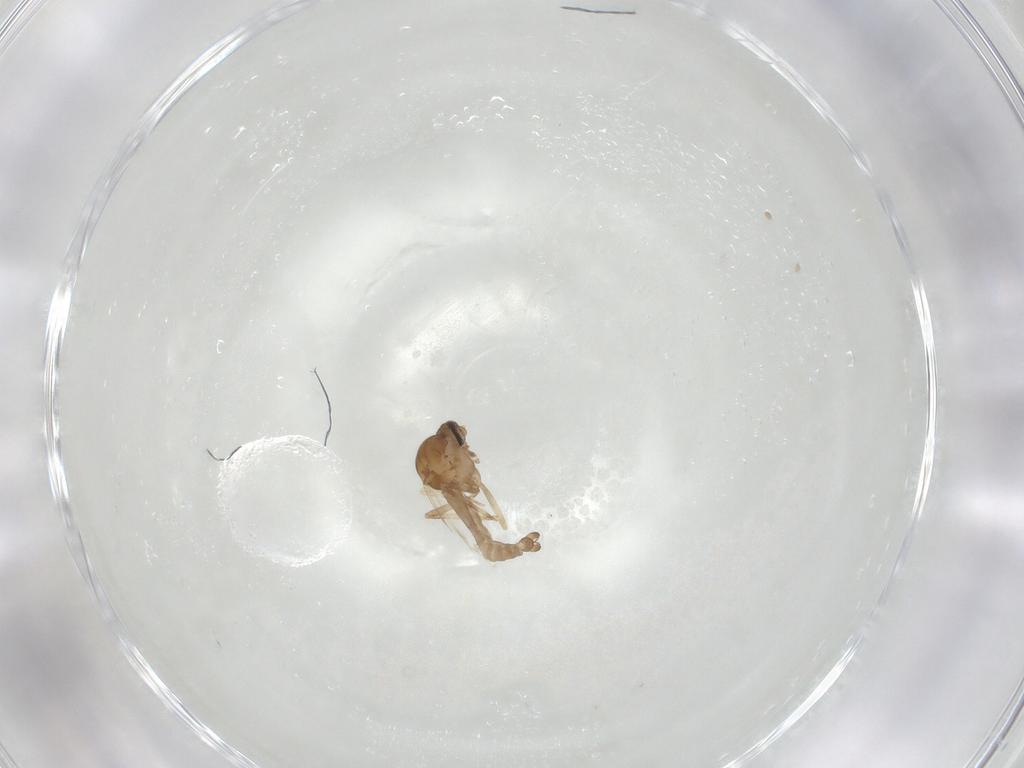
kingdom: Animalia
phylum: Arthropoda
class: Insecta
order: Diptera
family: Ceratopogonidae
